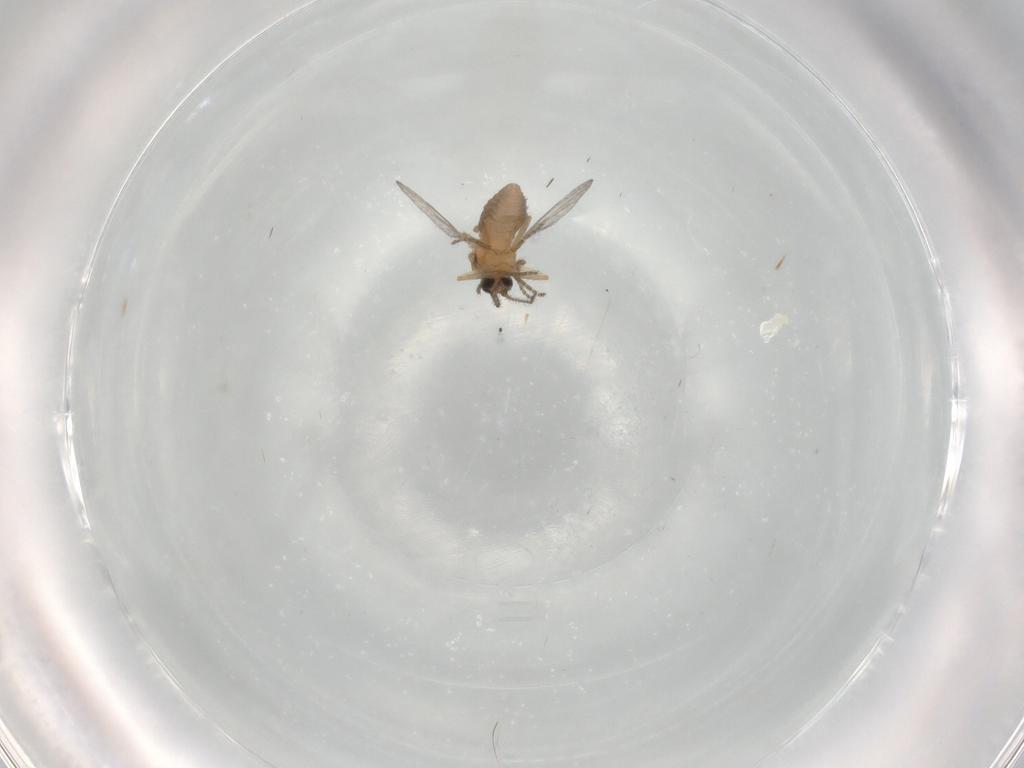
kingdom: Animalia
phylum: Arthropoda
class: Insecta
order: Diptera
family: Ceratopogonidae
